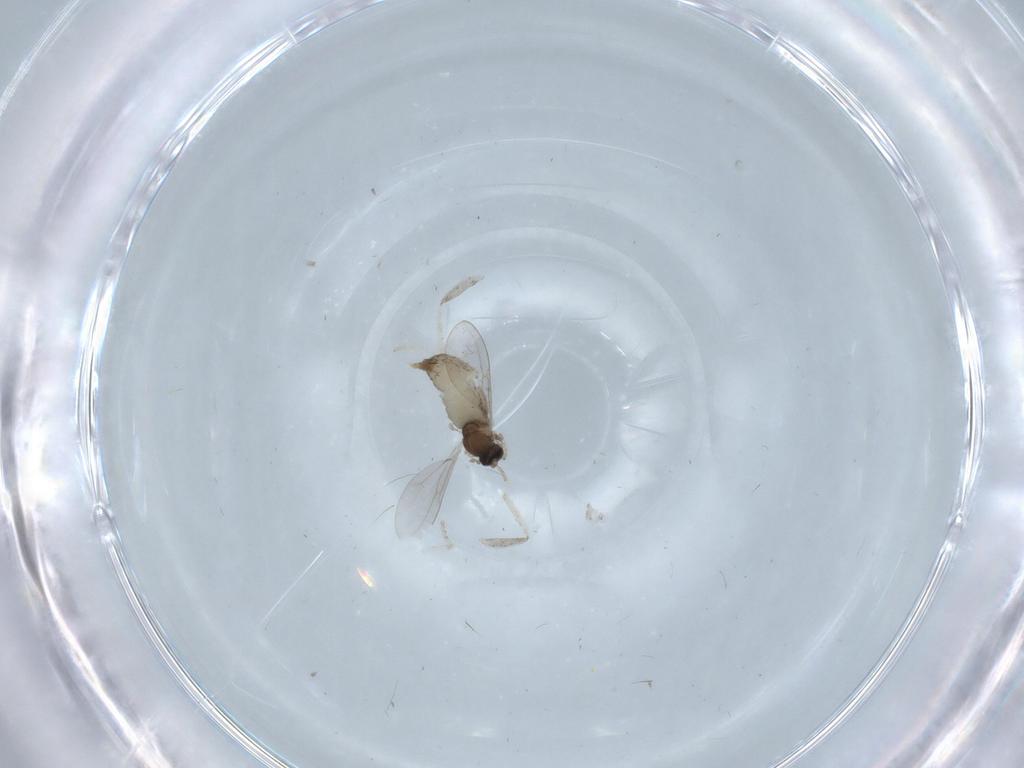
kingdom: Animalia
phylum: Arthropoda
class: Insecta
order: Diptera
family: Cecidomyiidae
